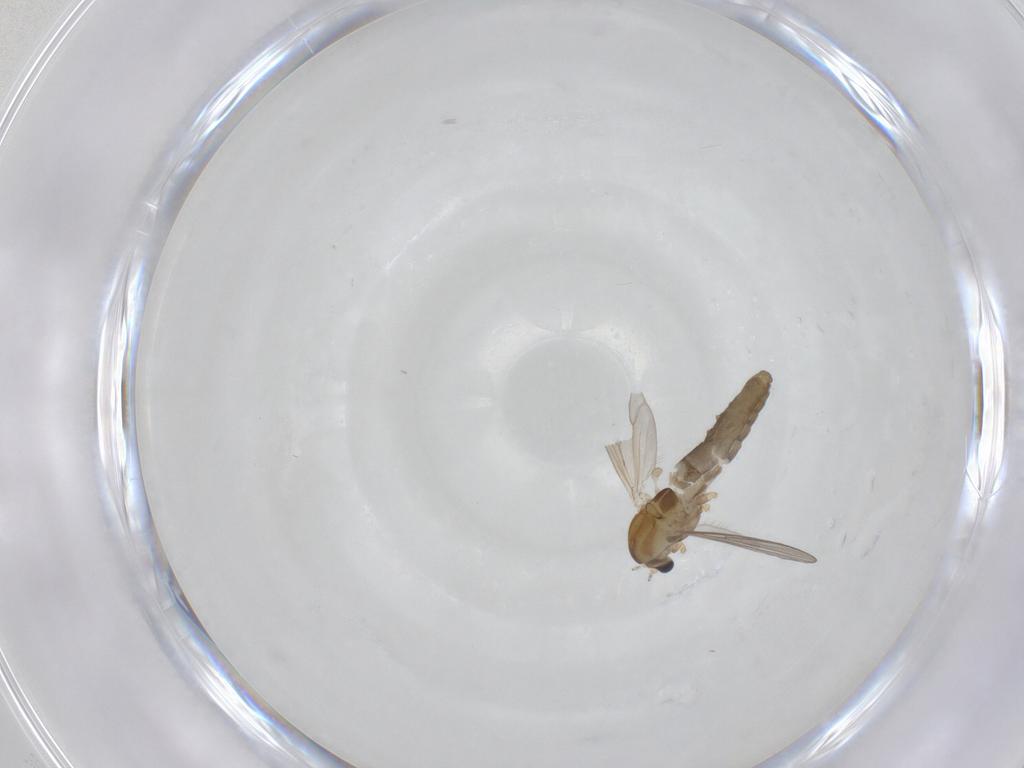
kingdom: Animalia
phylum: Arthropoda
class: Insecta
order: Diptera
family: Chironomidae
